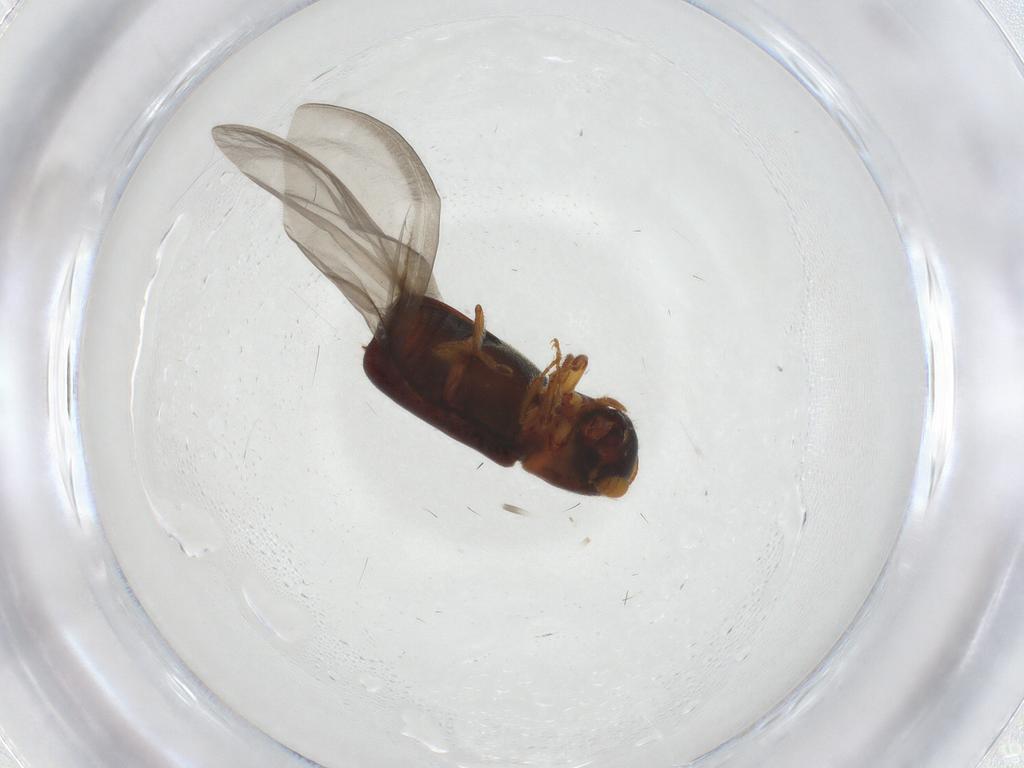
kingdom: Animalia
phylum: Arthropoda
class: Insecta
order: Coleoptera
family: Curculionidae
